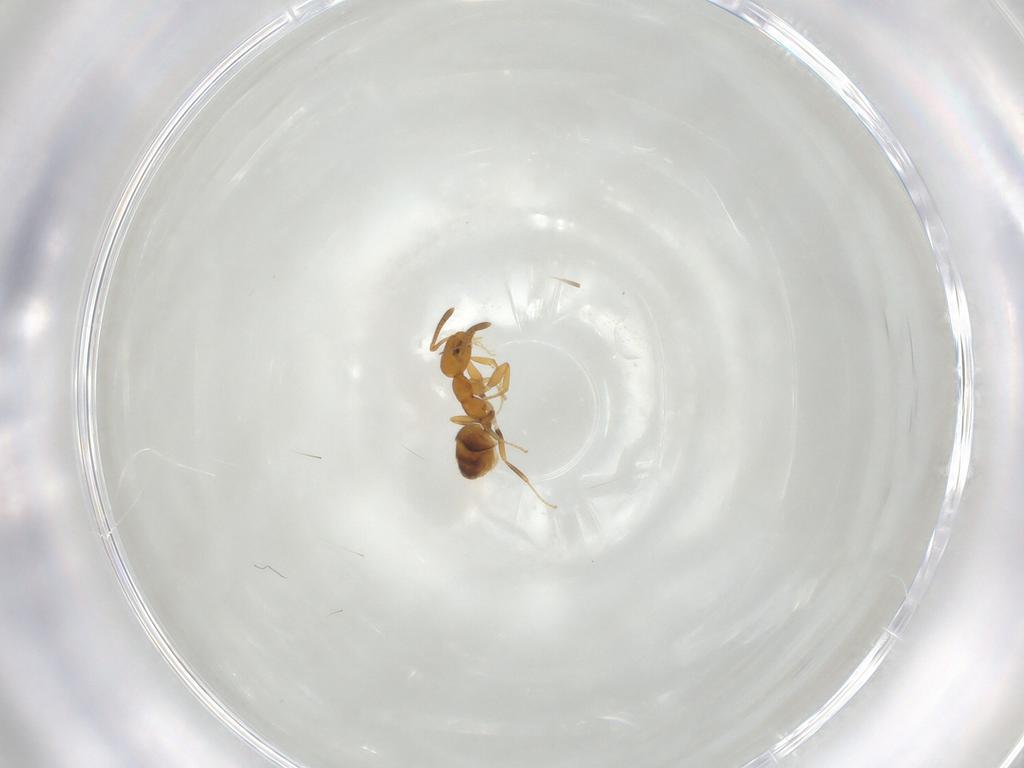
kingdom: Animalia
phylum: Arthropoda
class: Insecta
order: Hymenoptera
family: Formicidae
